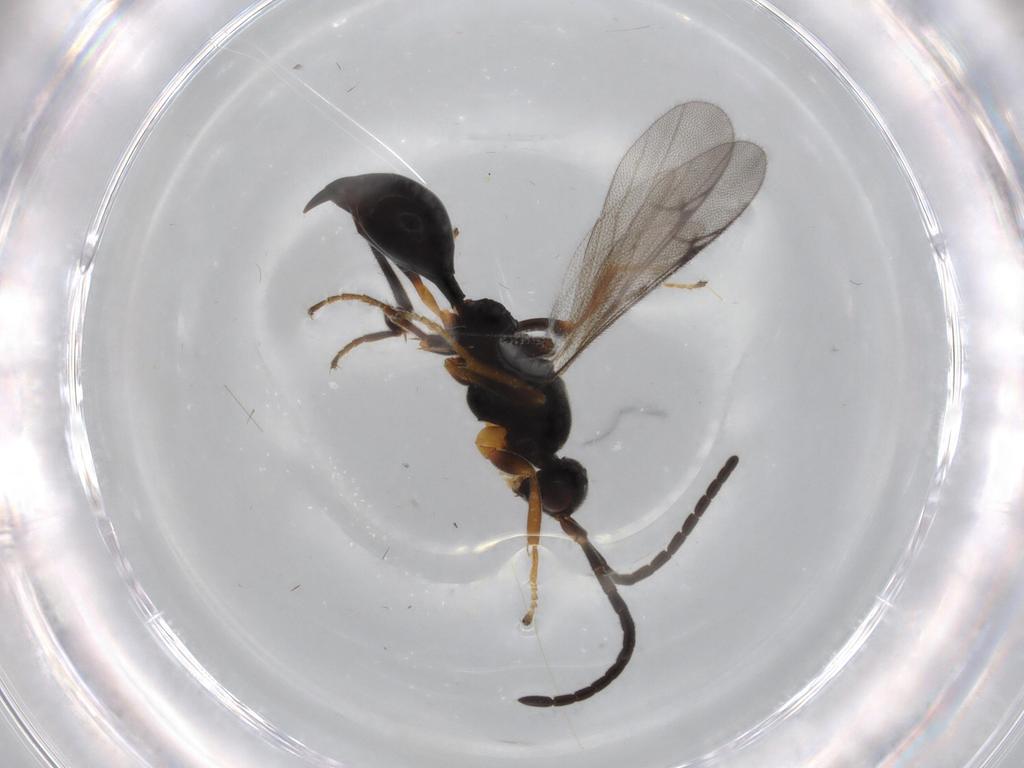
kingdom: Animalia
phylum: Arthropoda
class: Insecta
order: Hymenoptera
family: Proctotrupidae
